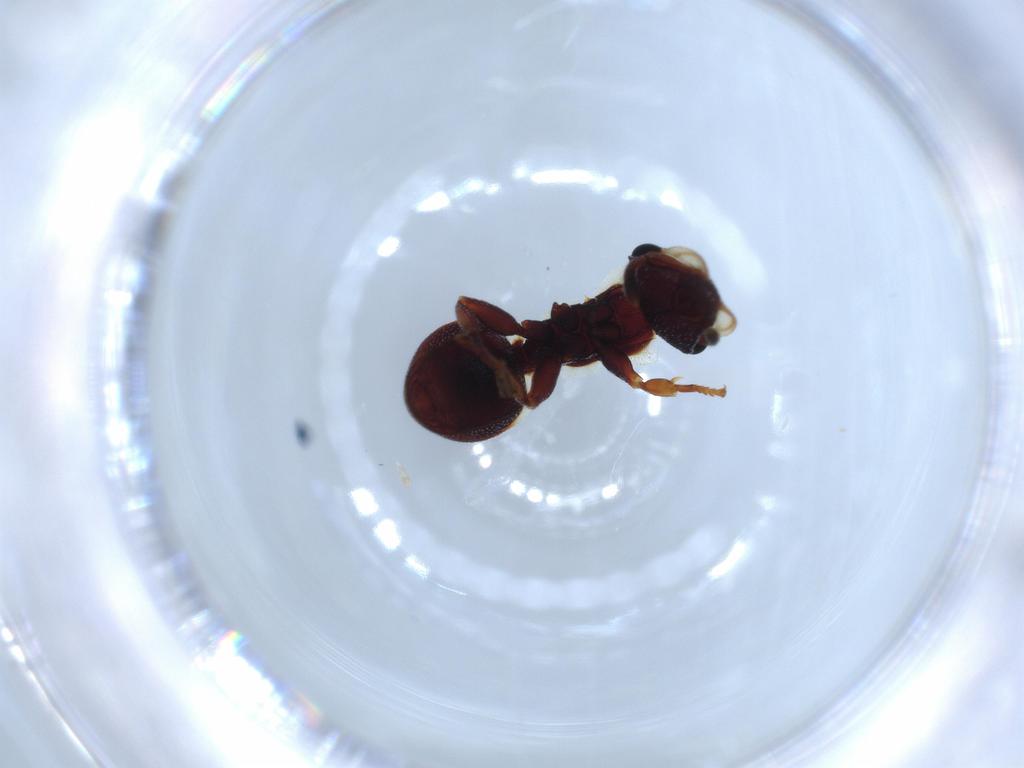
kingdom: Animalia
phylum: Arthropoda
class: Insecta
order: Hymenoptera
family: Formicidae
